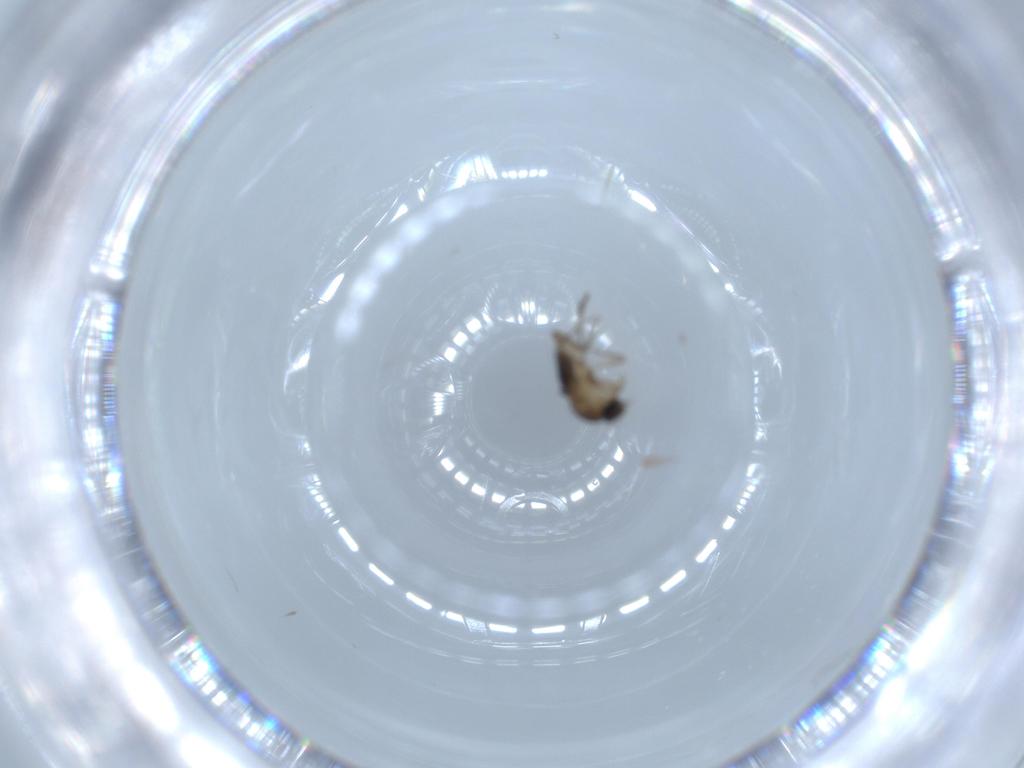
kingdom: Animalia
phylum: Arthropoda
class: Insecta
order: Diptera
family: Phoridae
